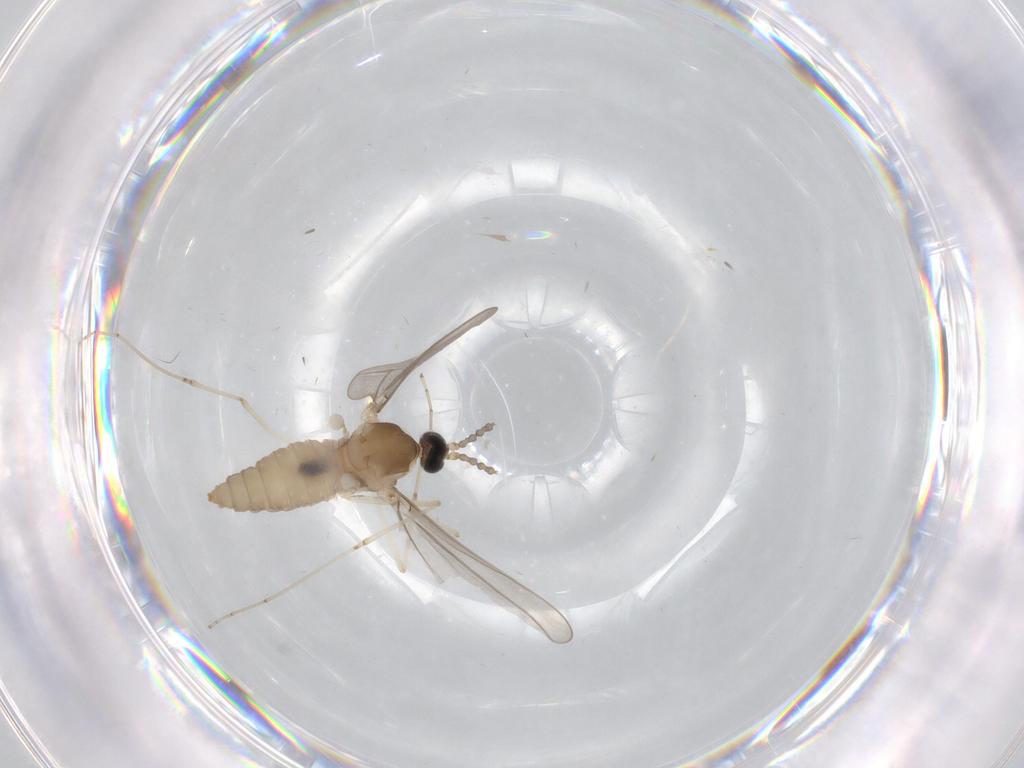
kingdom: Animalia
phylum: Arthropoda
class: Insecta
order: Diptera
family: Cecidomyiidae
